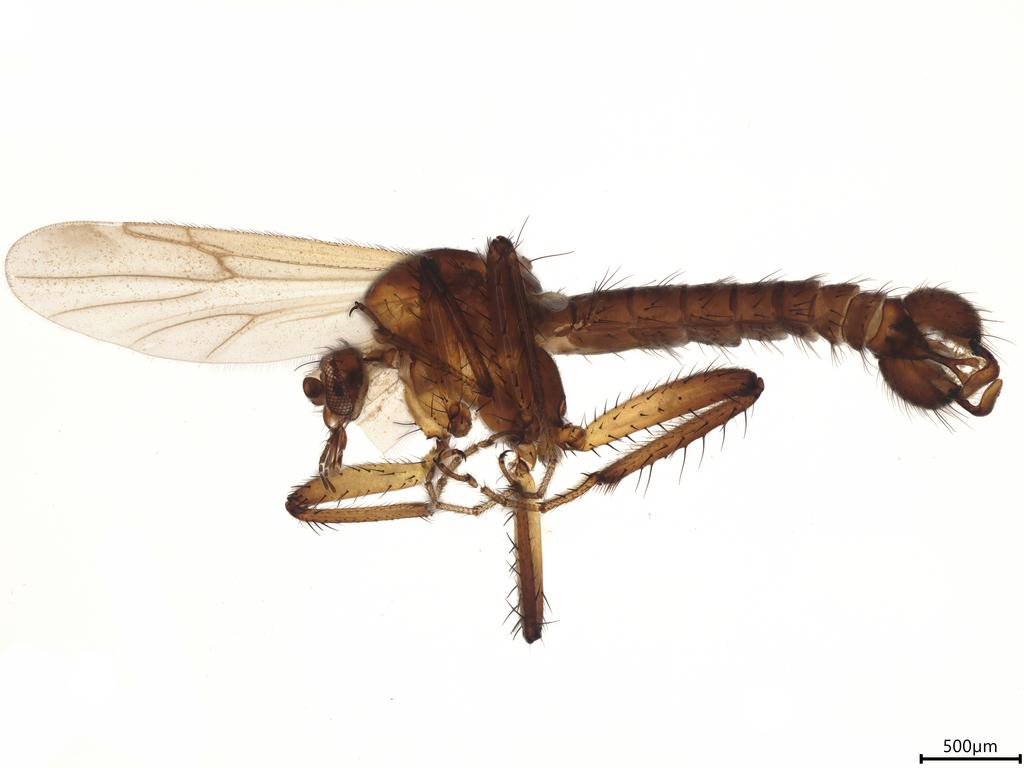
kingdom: Animalia
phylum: Arthropoda
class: Insecta
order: Diptera
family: Ceratopogonidae
